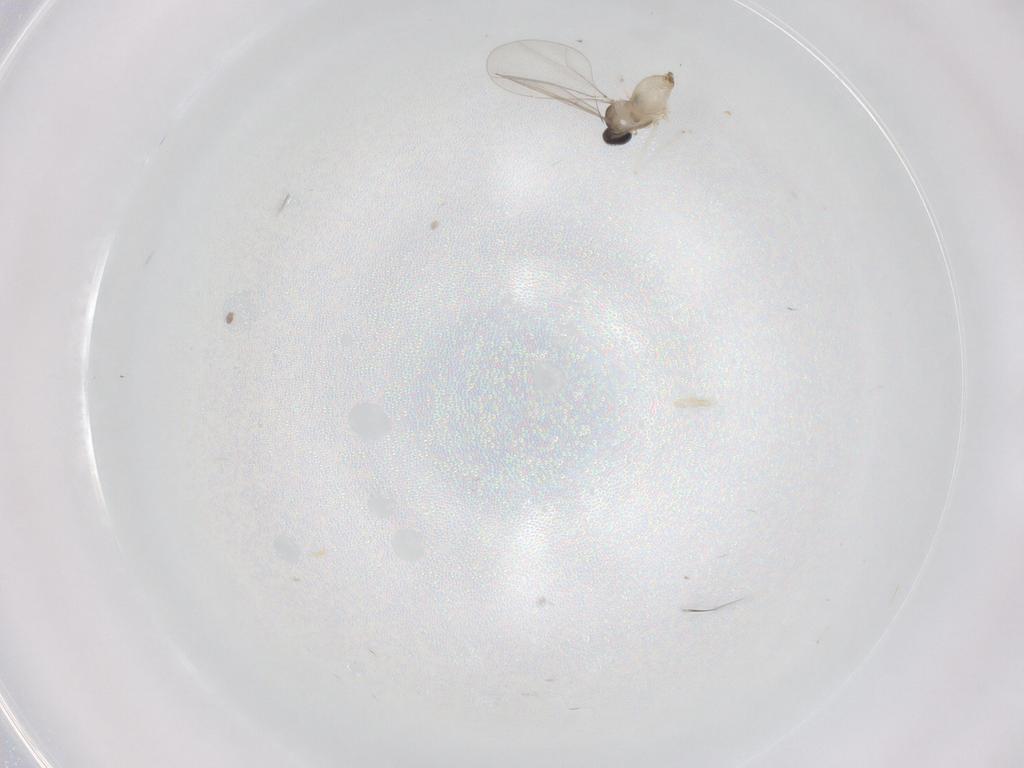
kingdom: Animalia
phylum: Arthropoda
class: Insecta
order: Diptera
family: Cecidomyiidae
